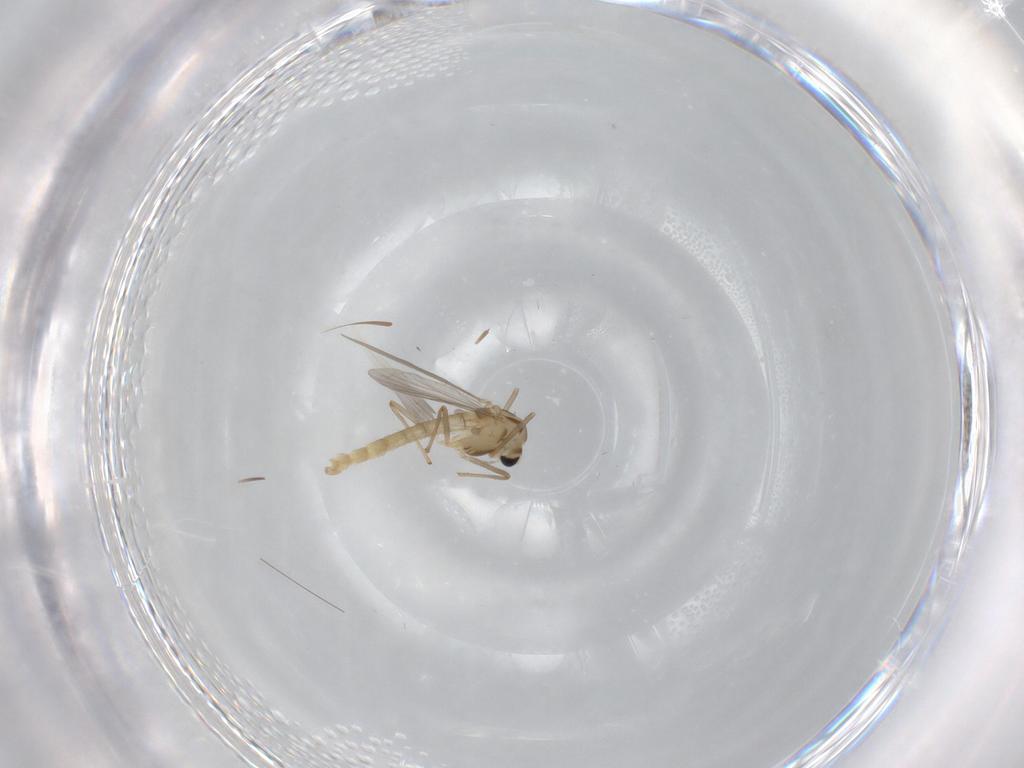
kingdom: Animalia
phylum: Arthropoda
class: Insecta
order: Diptera
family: Chironomidae
